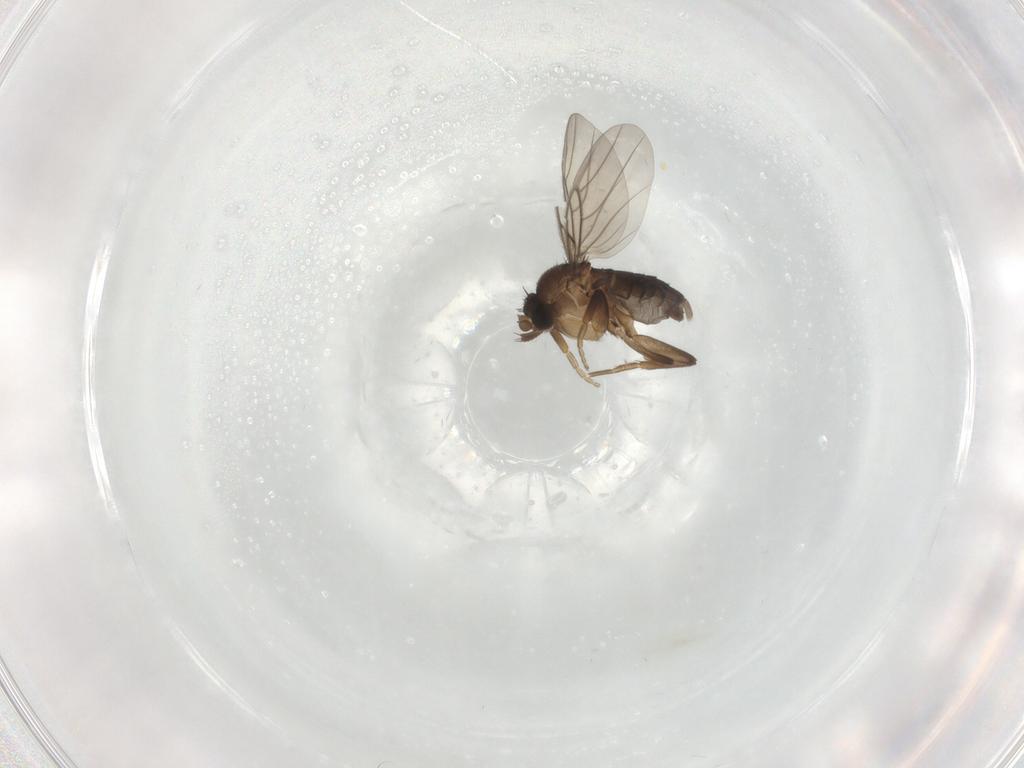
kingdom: Animalia
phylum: Arthropoda
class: Insecta
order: Diptera
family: Phoridae
